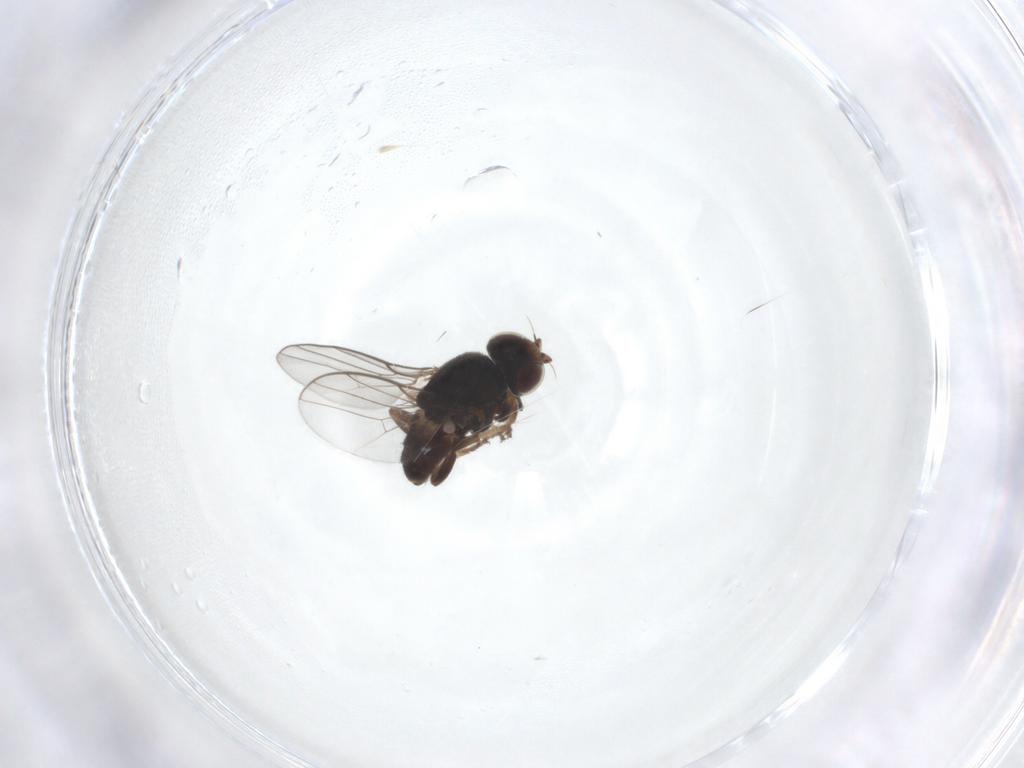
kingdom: Animalia
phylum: Arthropoda
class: Insecta
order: Diptera
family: Chloropidae
